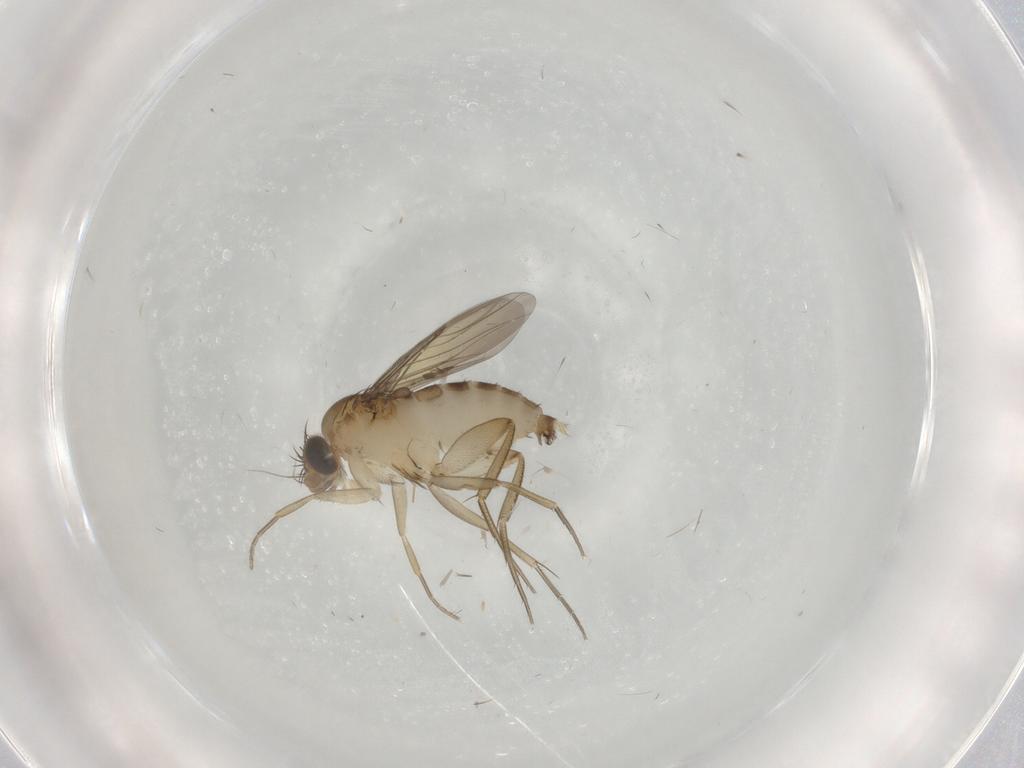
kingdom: Animalia
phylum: Arthropoda
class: Insecta
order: Diptera
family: Phoridae
